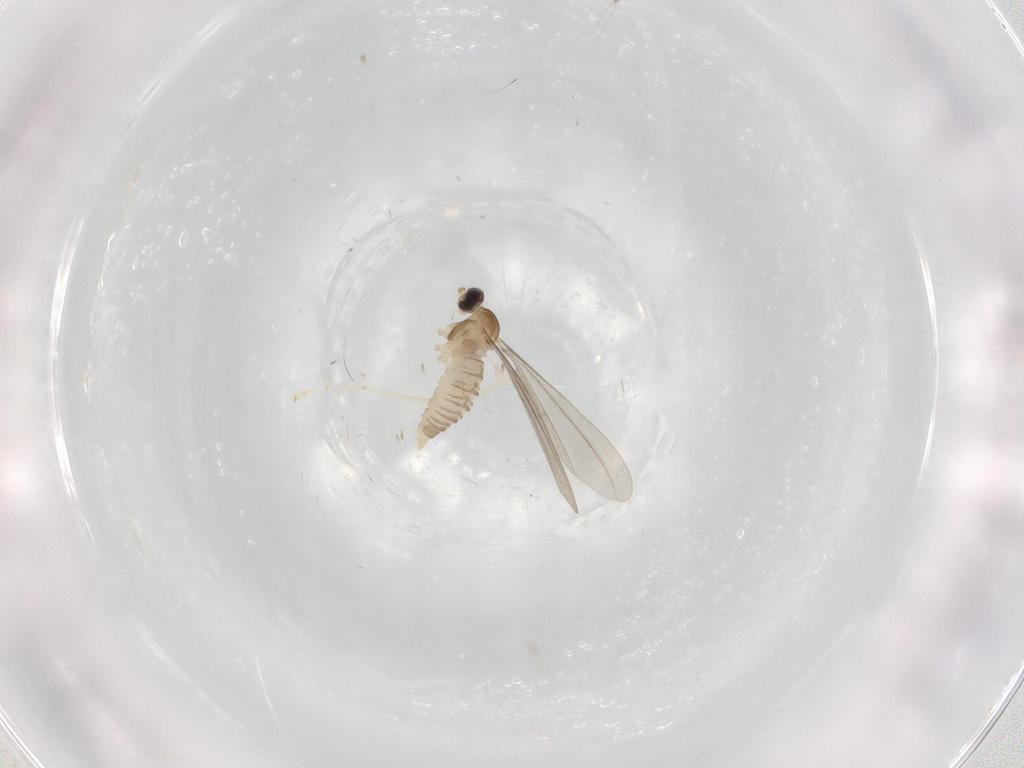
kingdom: Animalia
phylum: Arthropoda
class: Insecta
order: Diptera
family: Cecidomyiidae
